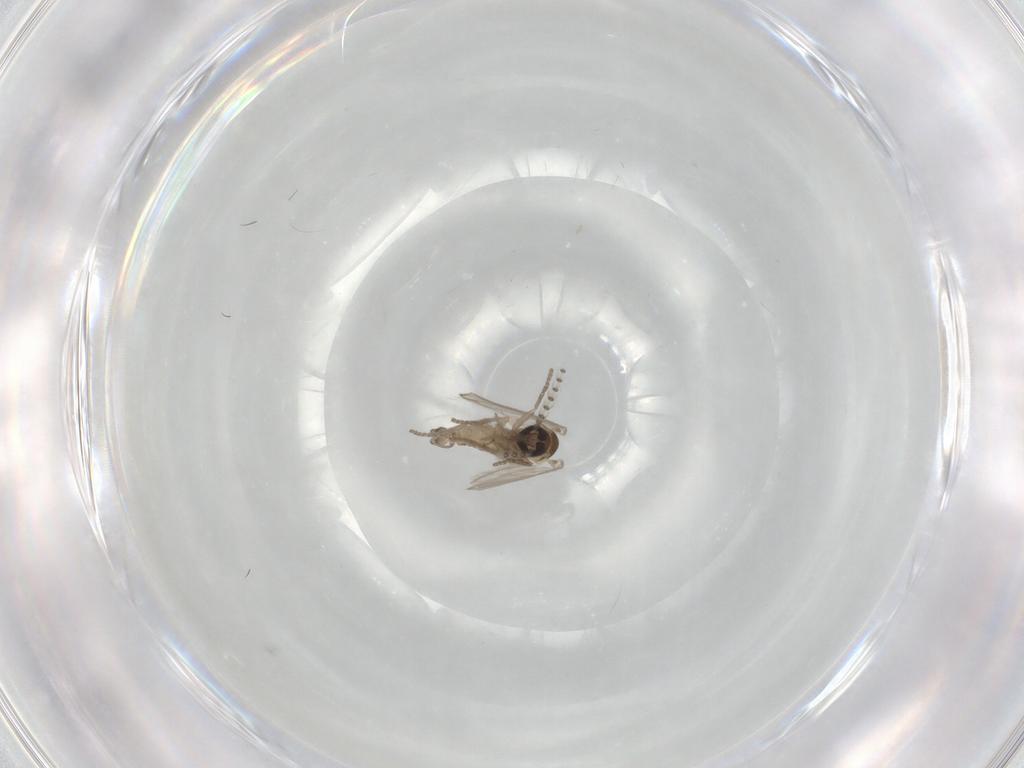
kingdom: Animalia
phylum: Arthropoda
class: Insecta
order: Diptera
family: Psychodidae
